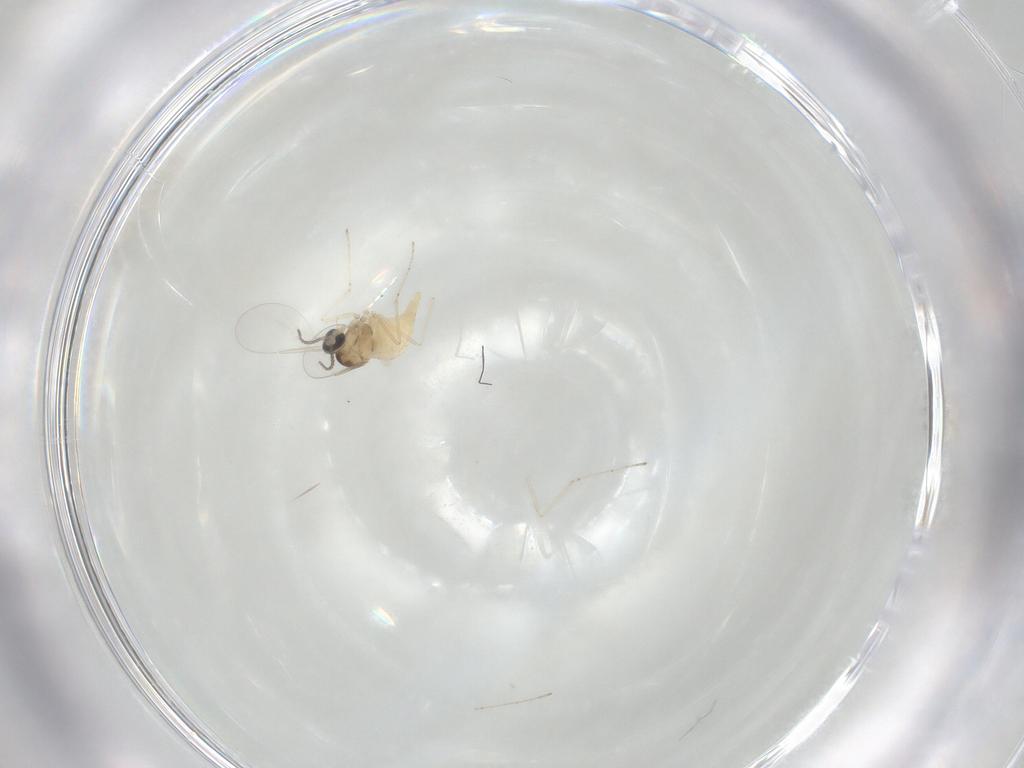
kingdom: Animalia
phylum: Arthropoda
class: Insecta
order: Diptera
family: Cecidomyiidae
